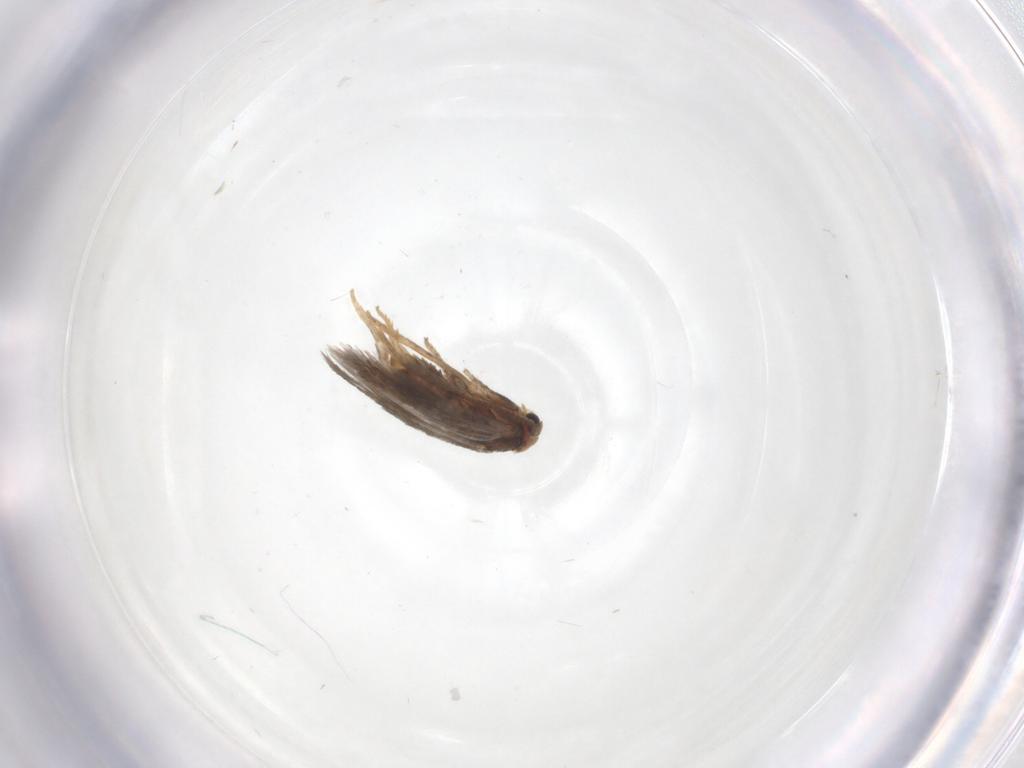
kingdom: Animalia
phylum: Arthropoda
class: Insecta
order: Lepidoptera
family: Nepticulidae
